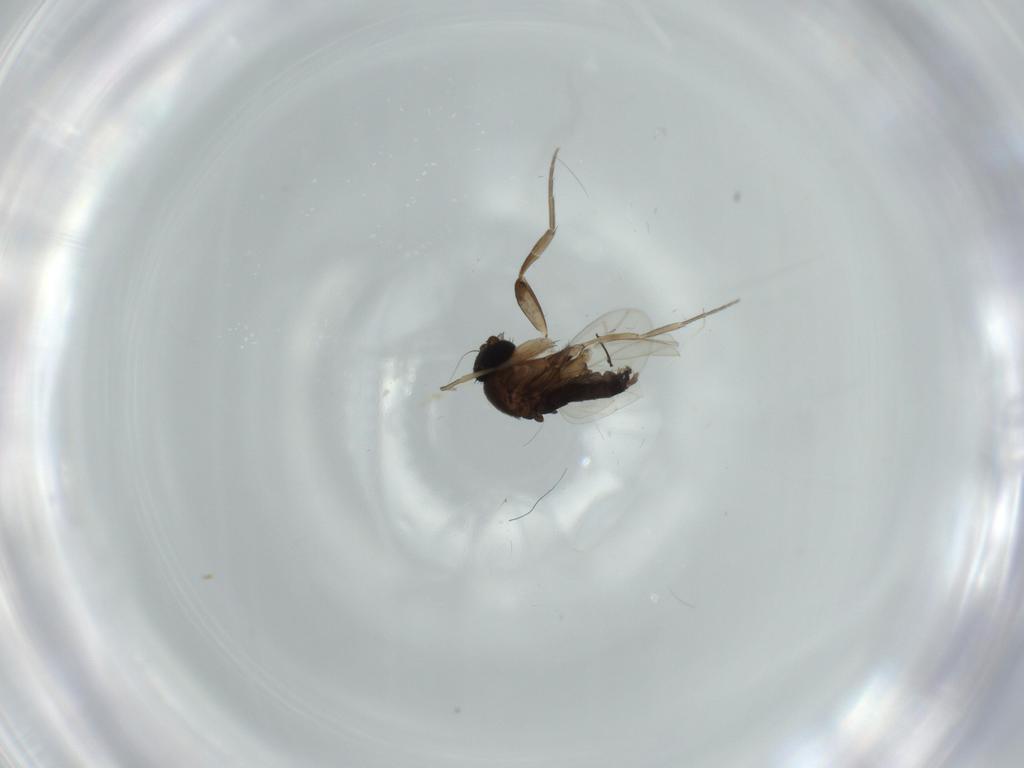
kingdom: Animalia
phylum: Arthropoda
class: Insecta
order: Diptera
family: Phoridae
